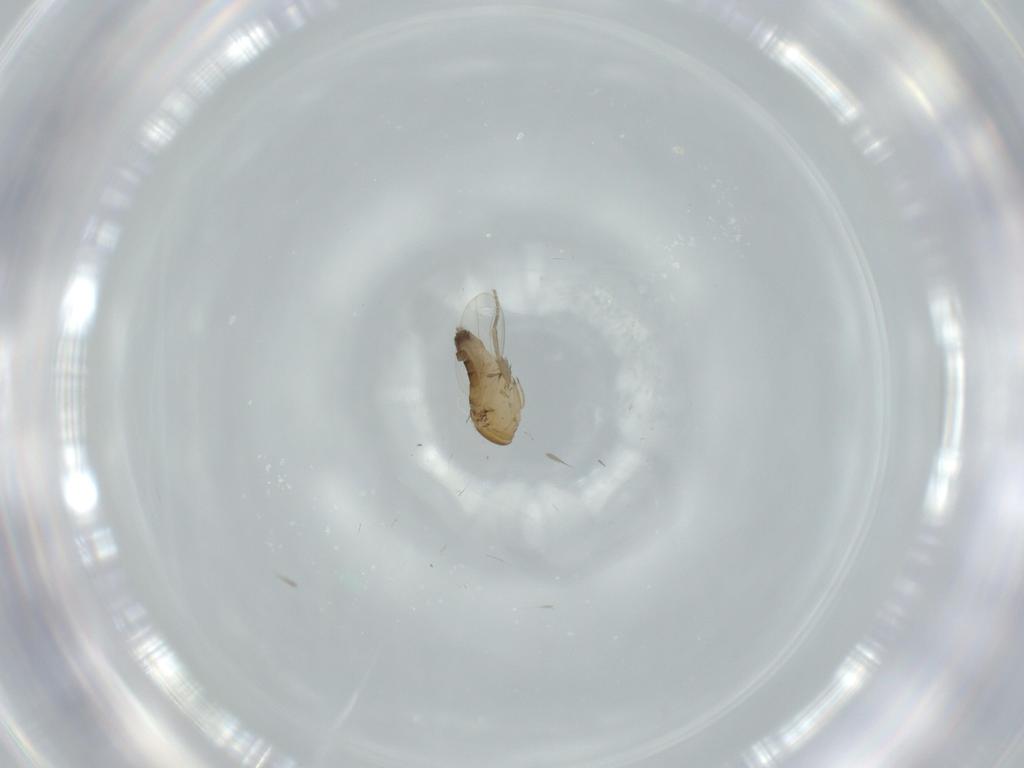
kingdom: Animalia
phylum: Arthropoda
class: Insecta
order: Diptera
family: Phoridae
